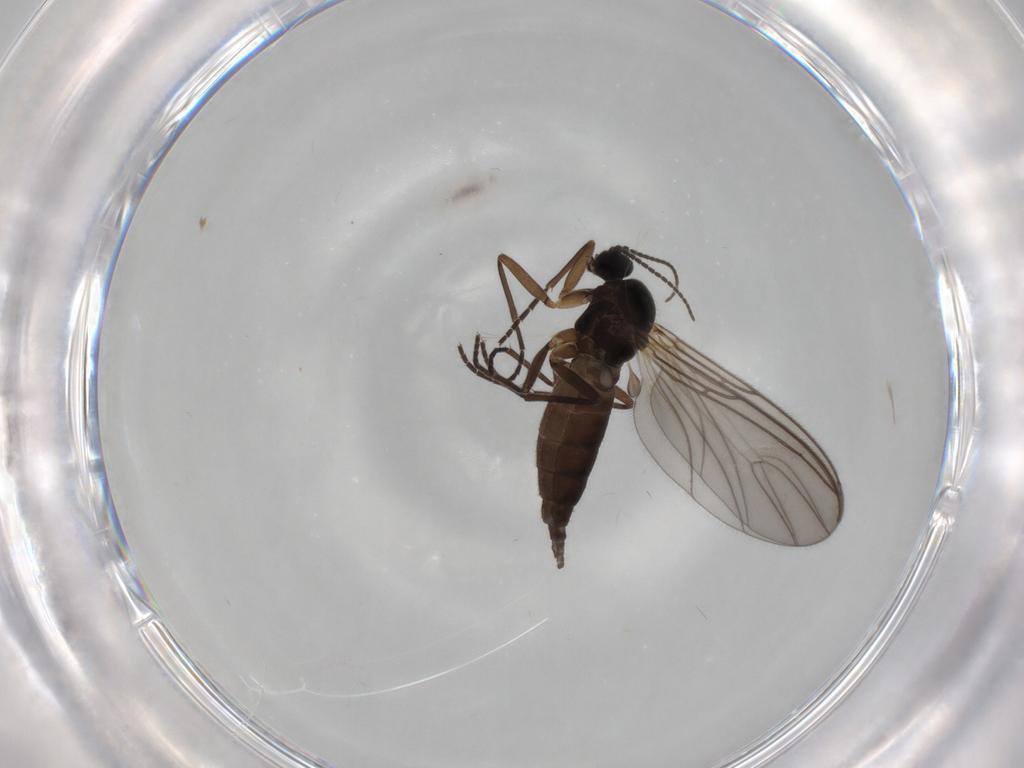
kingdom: Animalia
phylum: Arthropoda
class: Insecta
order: Diptera
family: Sciaridae
